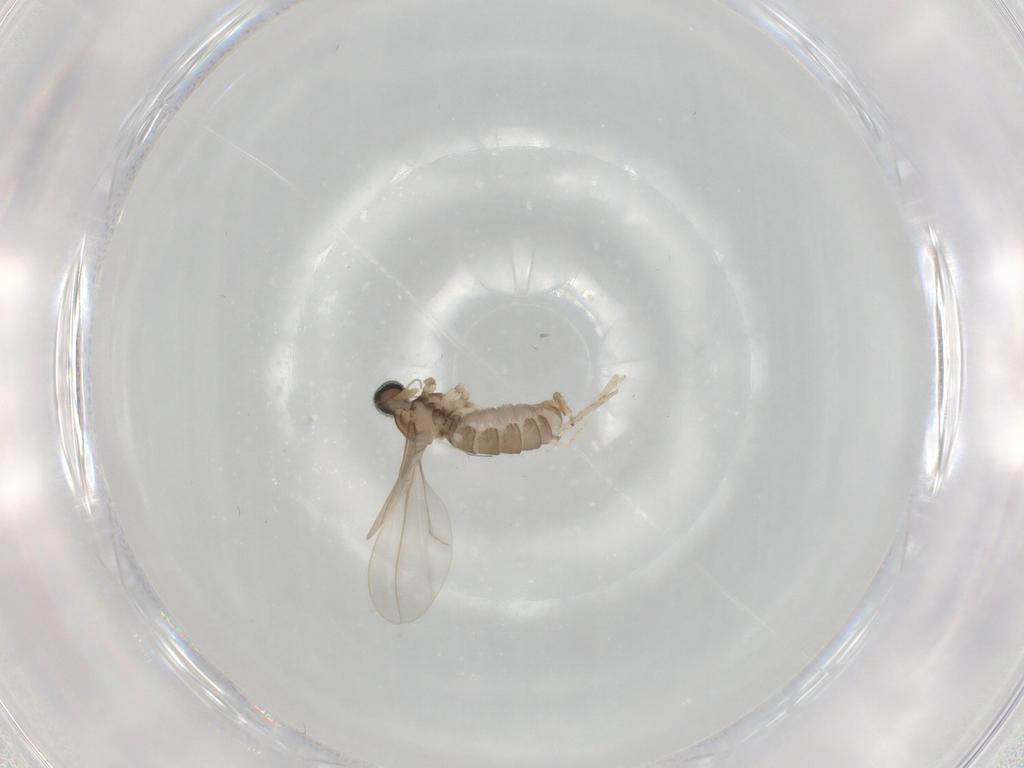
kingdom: Animalia
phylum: Arthropoda
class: Insecta
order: Diptera
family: Cecidomyiidae
